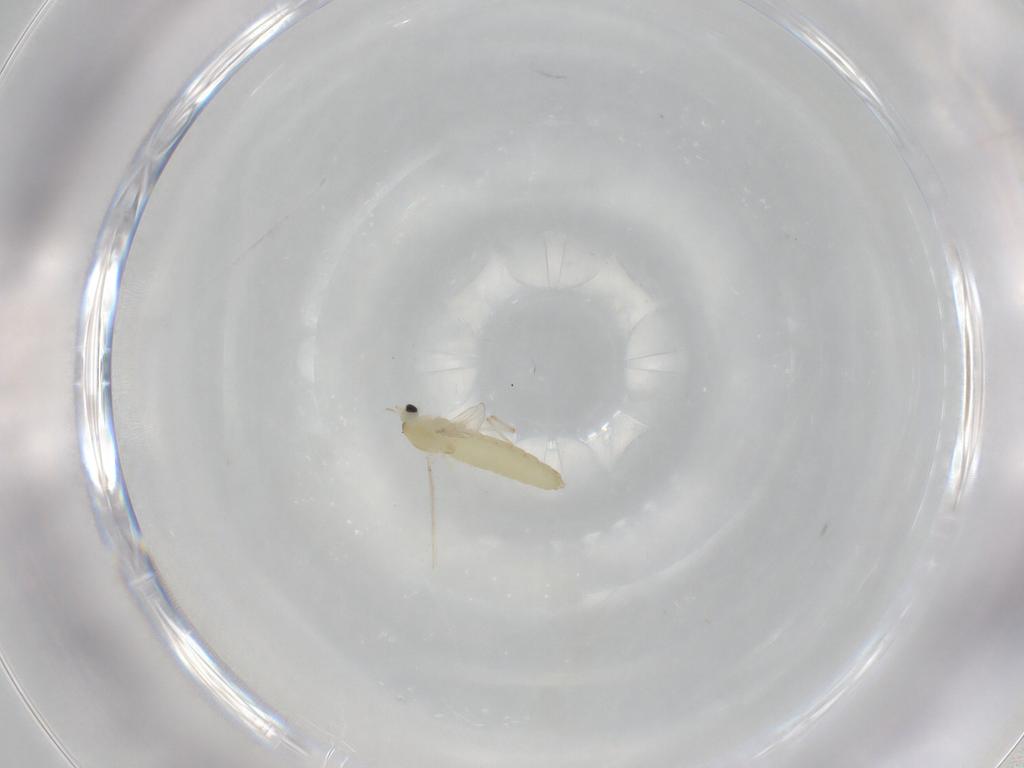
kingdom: Animalia
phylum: Arthropoda
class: Insecta
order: Diptera
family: Chironomidae
